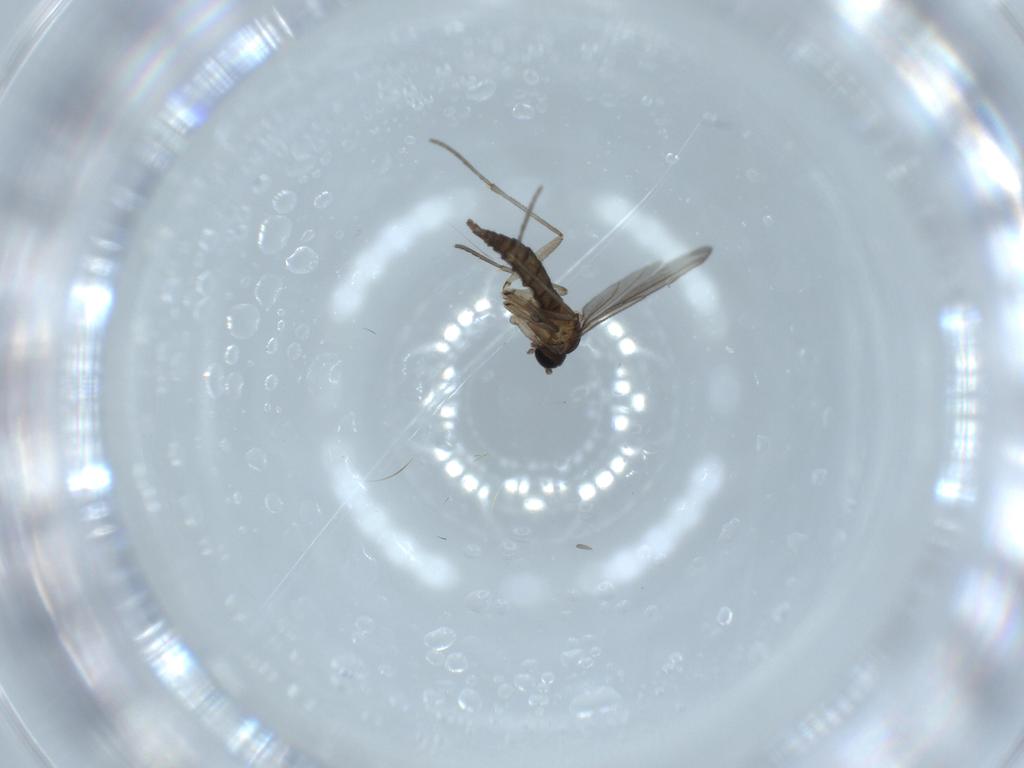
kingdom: Animalia
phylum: Arthropoda
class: Insecta
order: Diptera
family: Sciaridae
